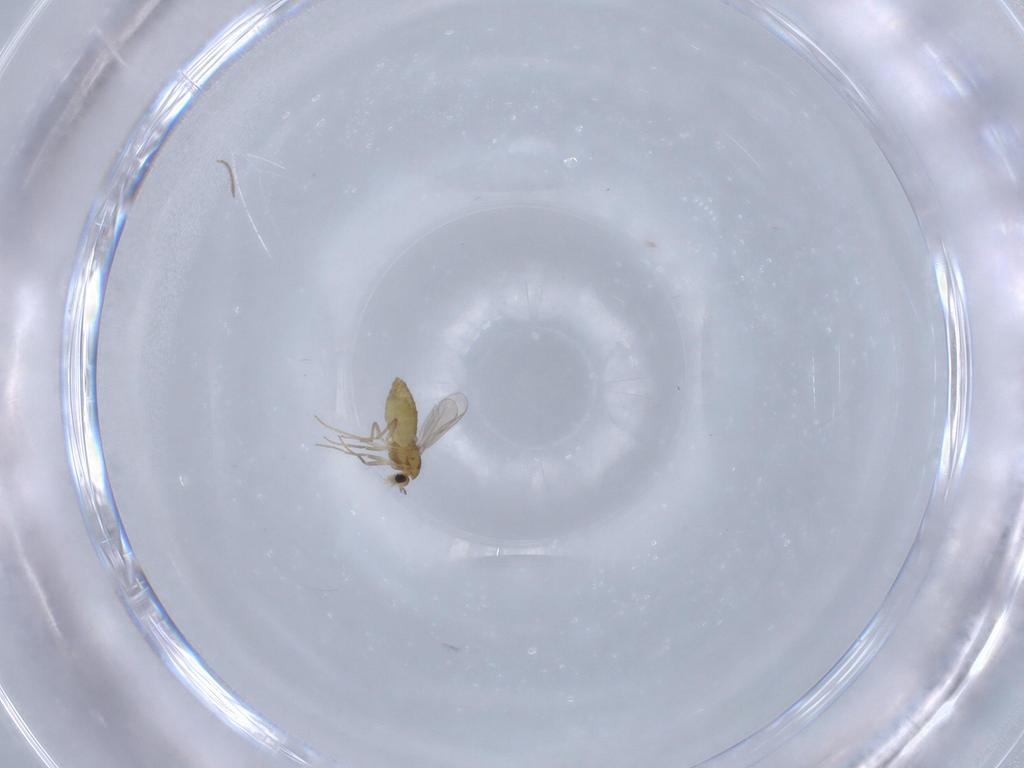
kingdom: Animalia
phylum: Arthropoda
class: Insecta
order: Diptera
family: Chironomidae
